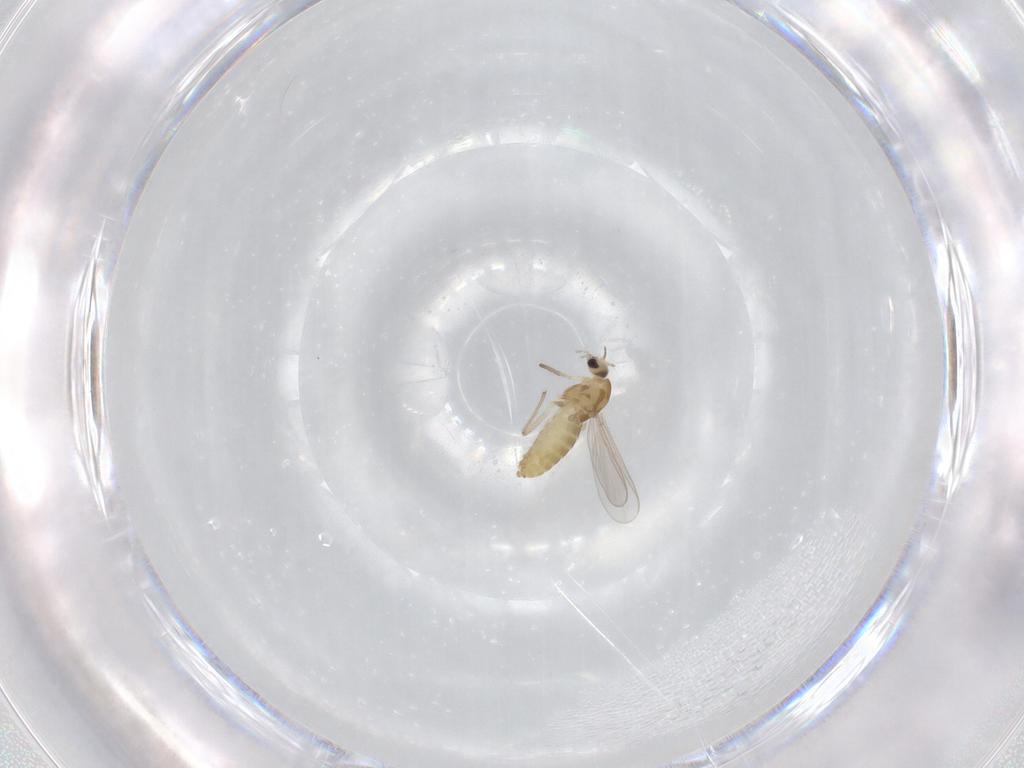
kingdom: Animalia
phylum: Arthropoda
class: Insecta
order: Diptera
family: Chironomidae
